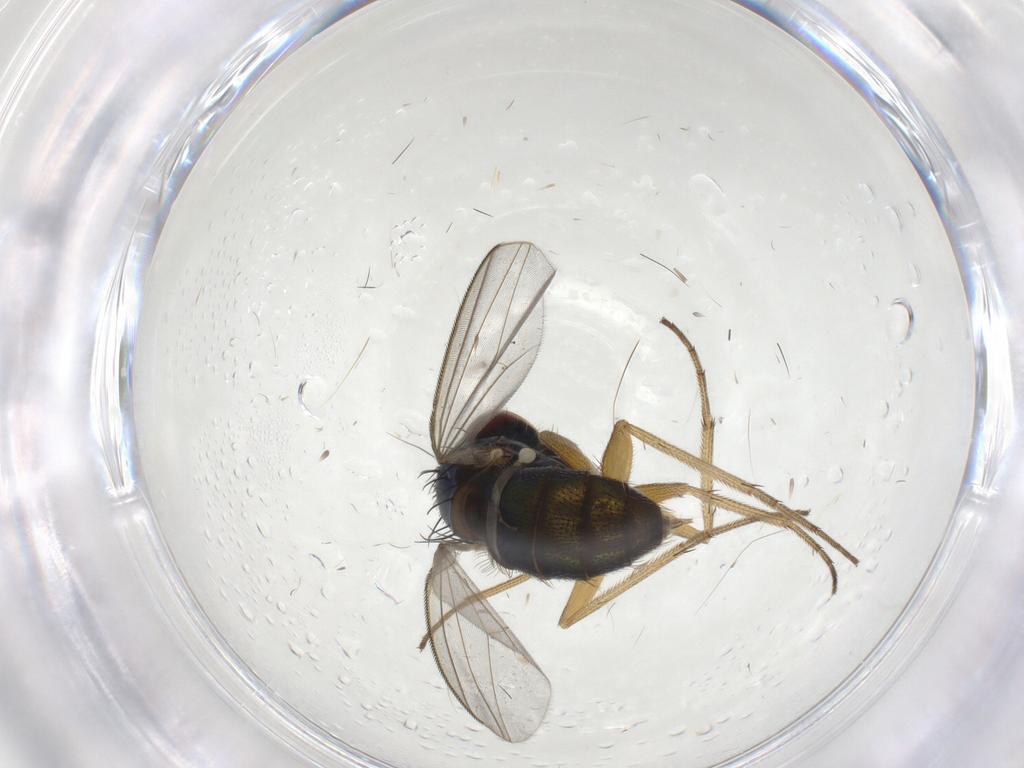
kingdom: Animalia
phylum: Arthropoda
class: Insecta
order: Diptera
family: Dolichopodidae
